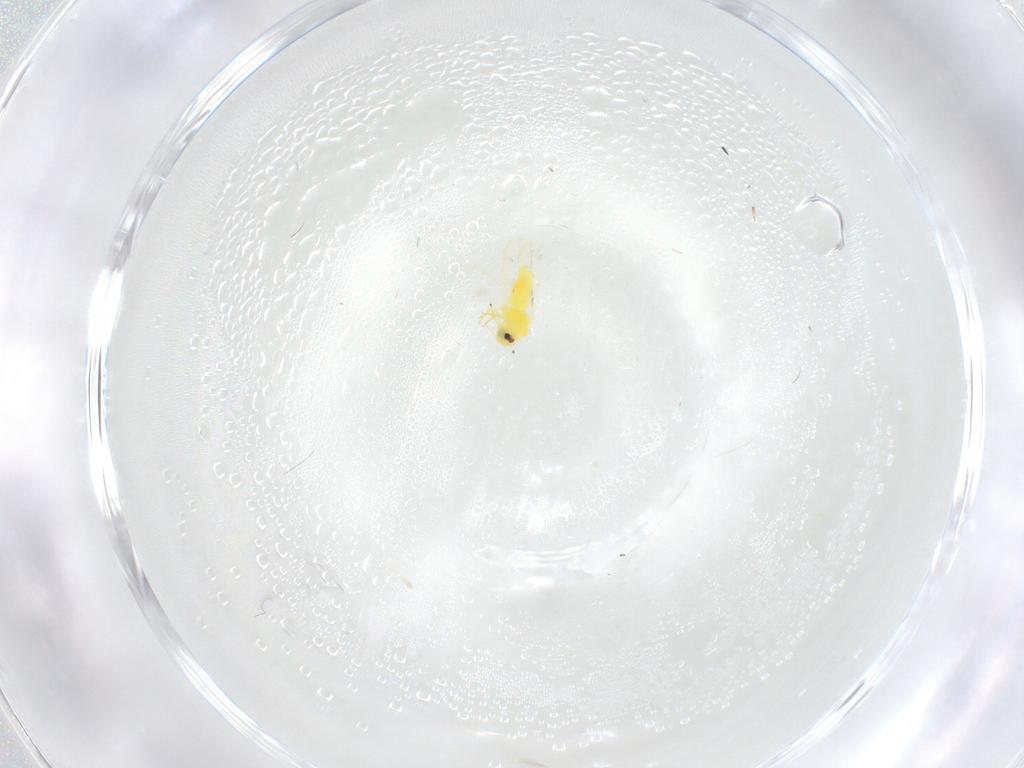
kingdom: Animalia
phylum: Arthropoda
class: Insecta
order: Hemiptera
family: Aleyrodidae
